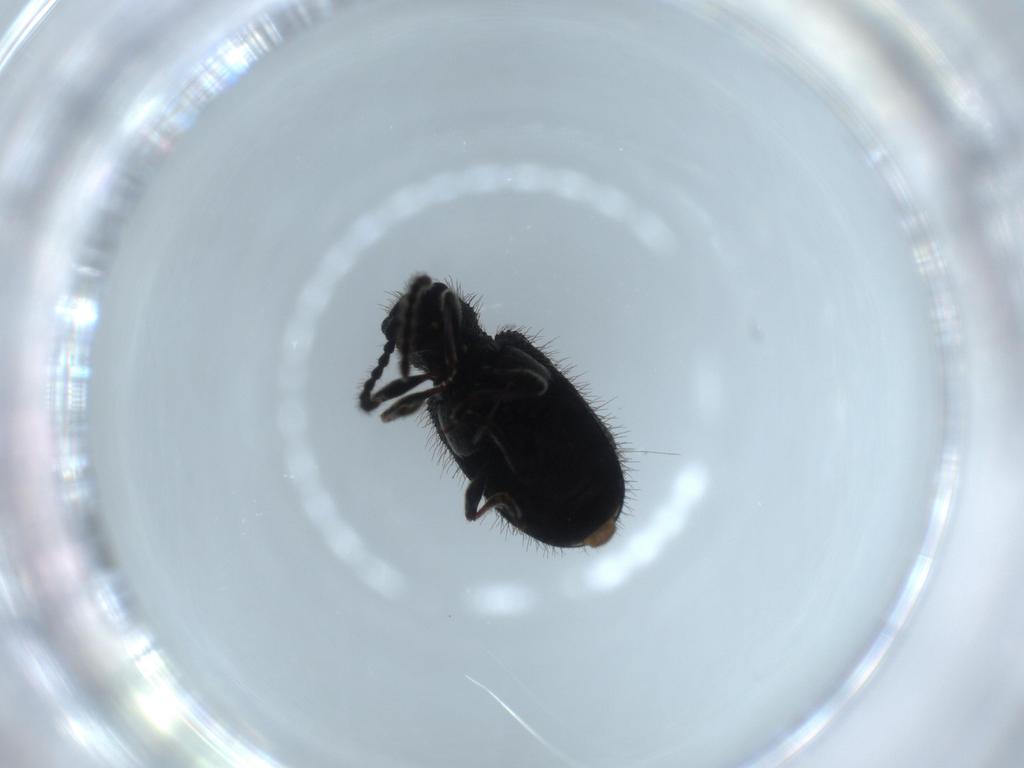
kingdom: Animalia
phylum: Arthropoda
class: Insecta
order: Coleoptera
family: Ptinidae
